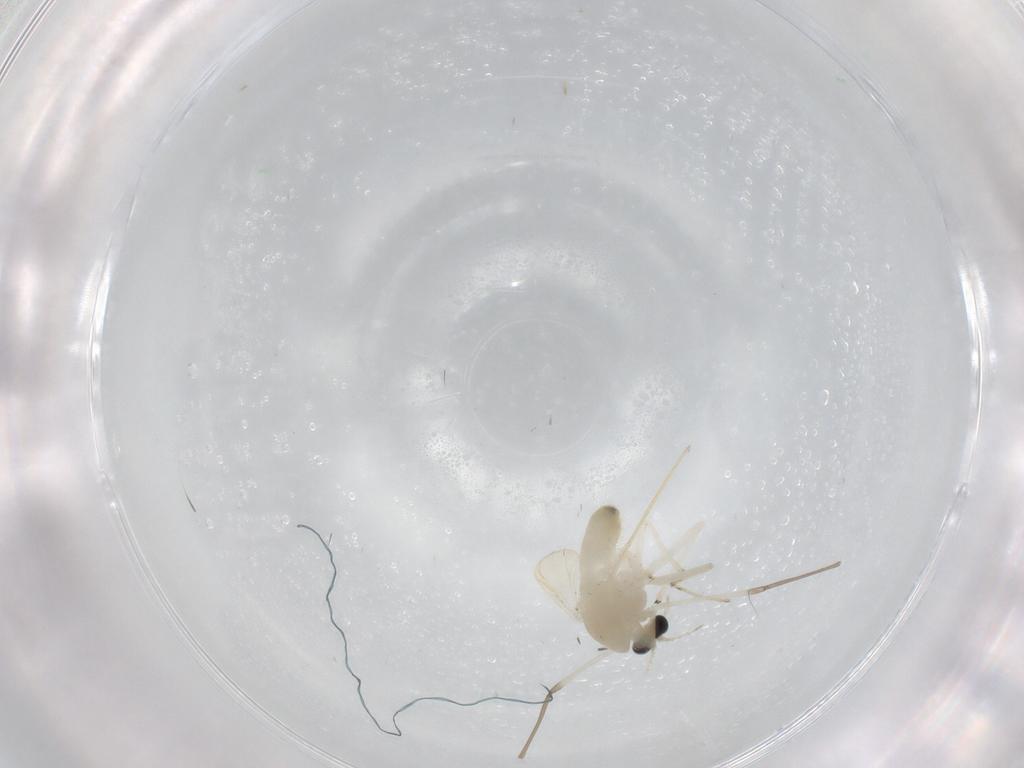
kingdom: Animalia
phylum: Arthropoda
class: Insecta
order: Diptera
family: Chironomidae
